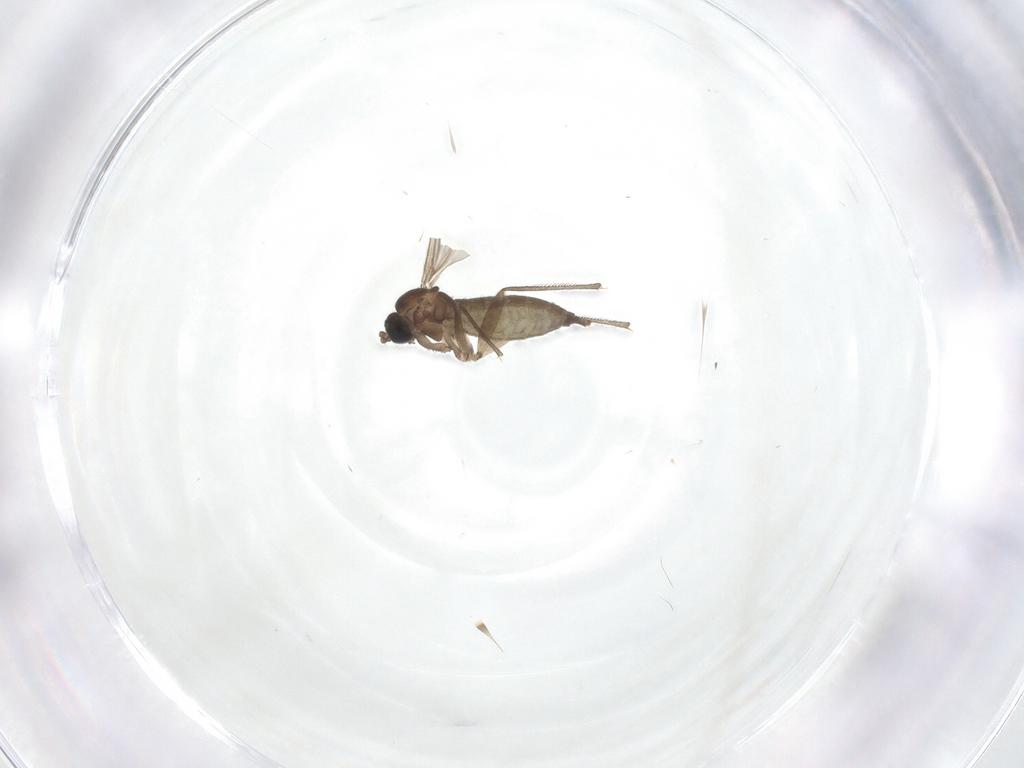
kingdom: Animalia
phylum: Arthropoda
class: Insecta
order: Diptera
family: Sciaridae
